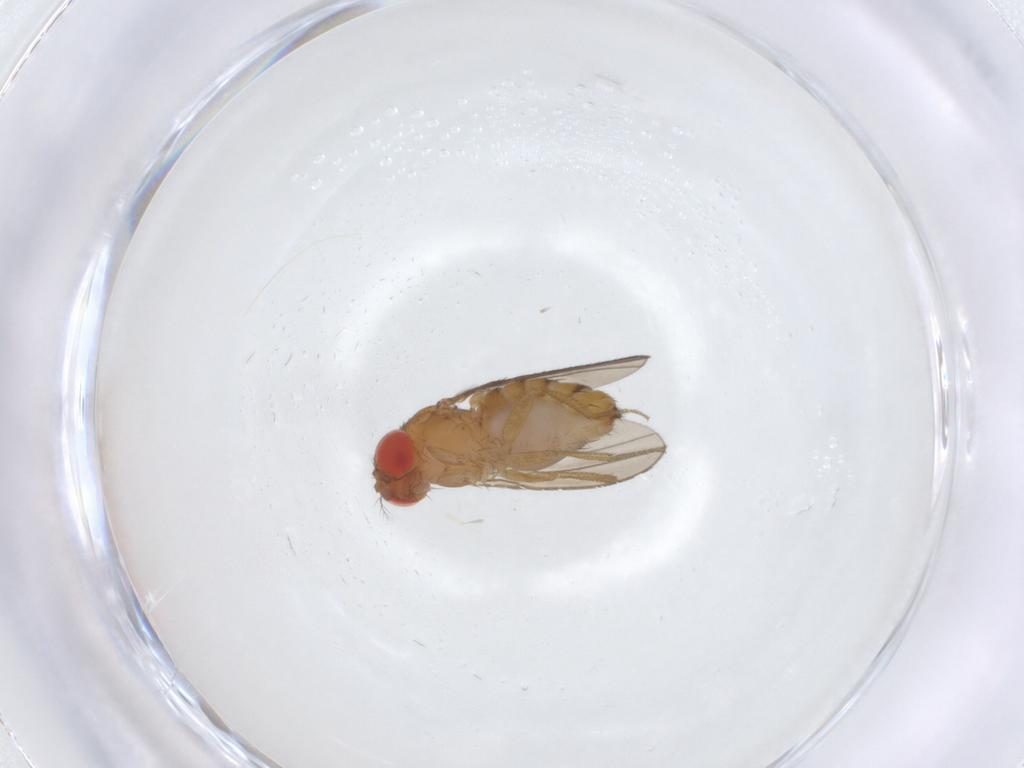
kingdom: Animalia
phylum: Arthropoda
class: Insecta
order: Diptera
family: Drosophilidae
